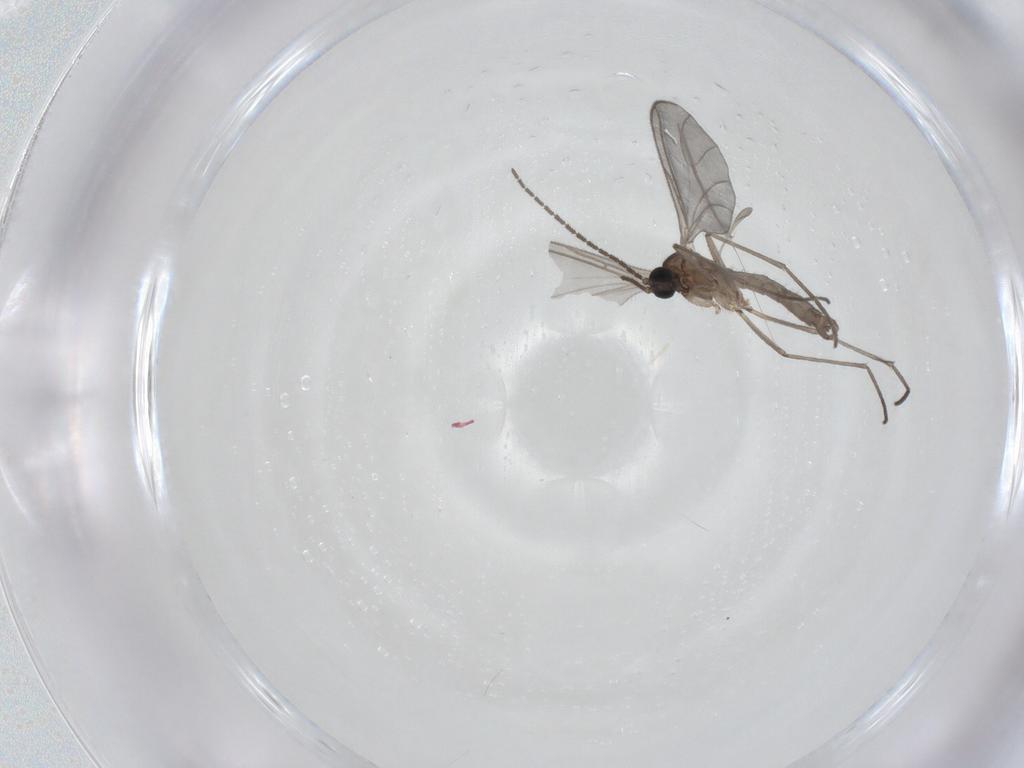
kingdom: Animalia
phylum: Arthropoda
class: Insecta
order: Diptera
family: Sciaridae
